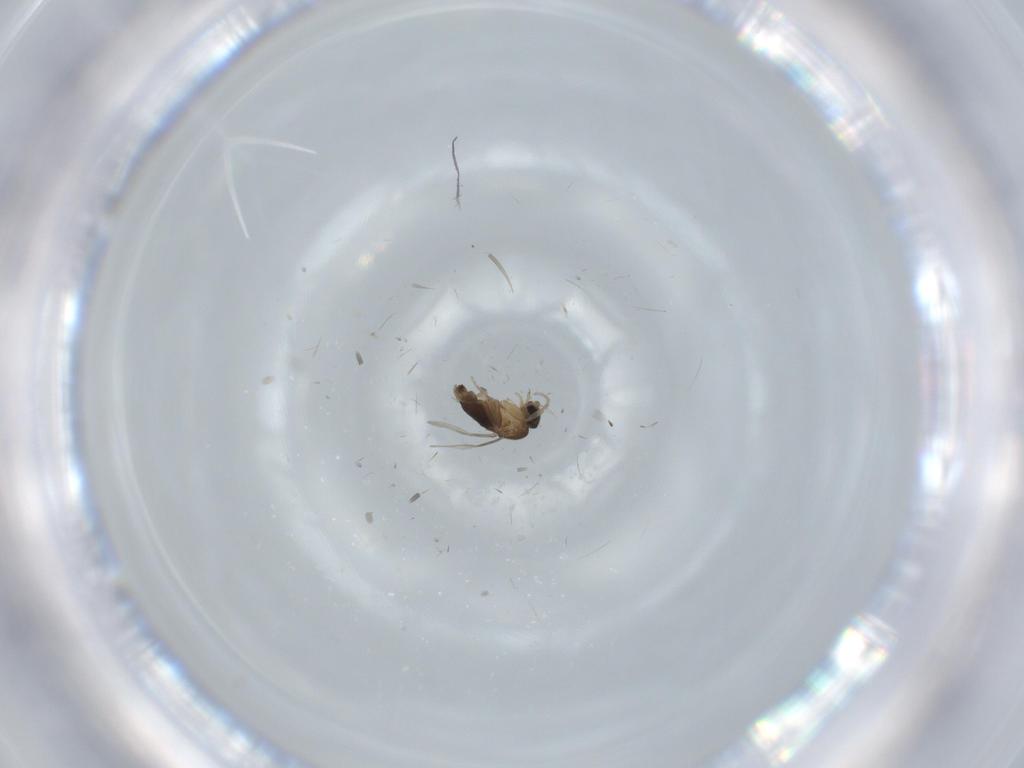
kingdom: Animalia
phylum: Arthropoda
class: Insecta
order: Diptera
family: Phoridae
